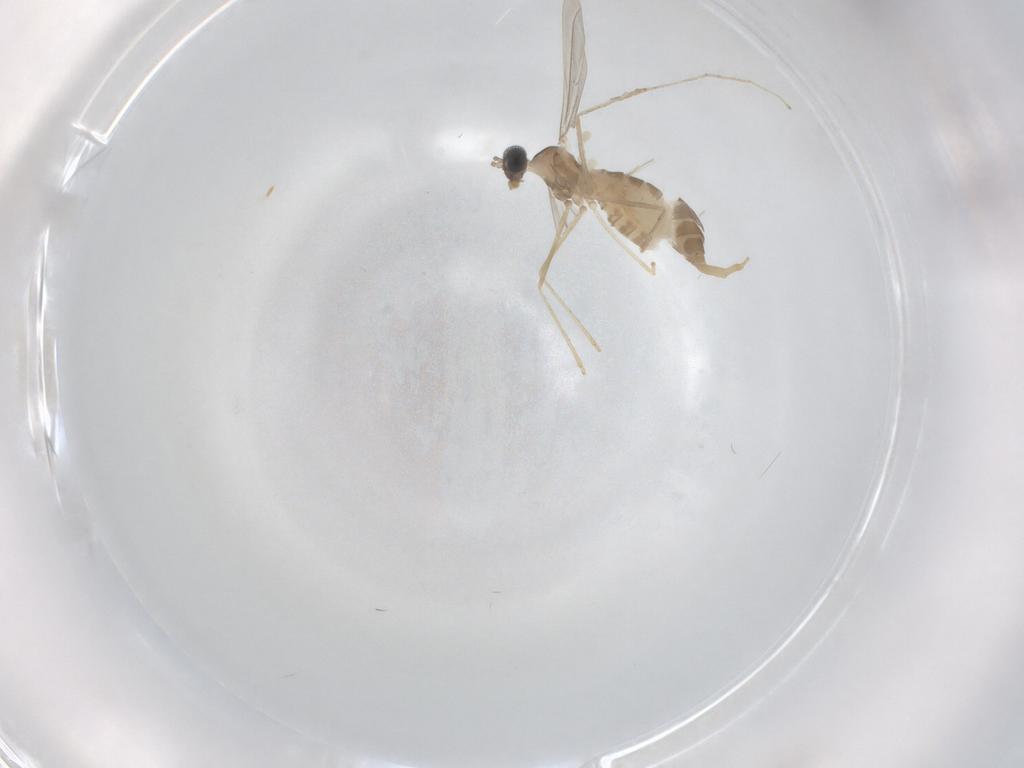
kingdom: Animalia
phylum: Arthropoda
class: Insecta
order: Diptera
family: Cecidomyiidae
